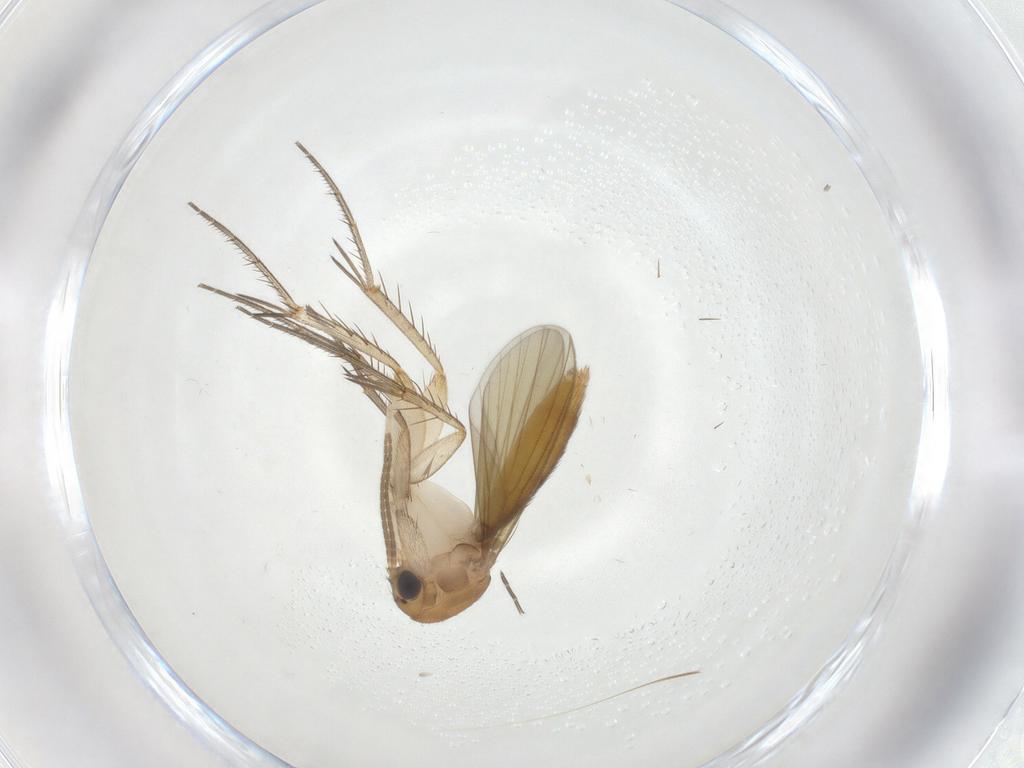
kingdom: Animalia
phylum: Arthropoda
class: Insecta
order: Diptera
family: Mycetophilidae
